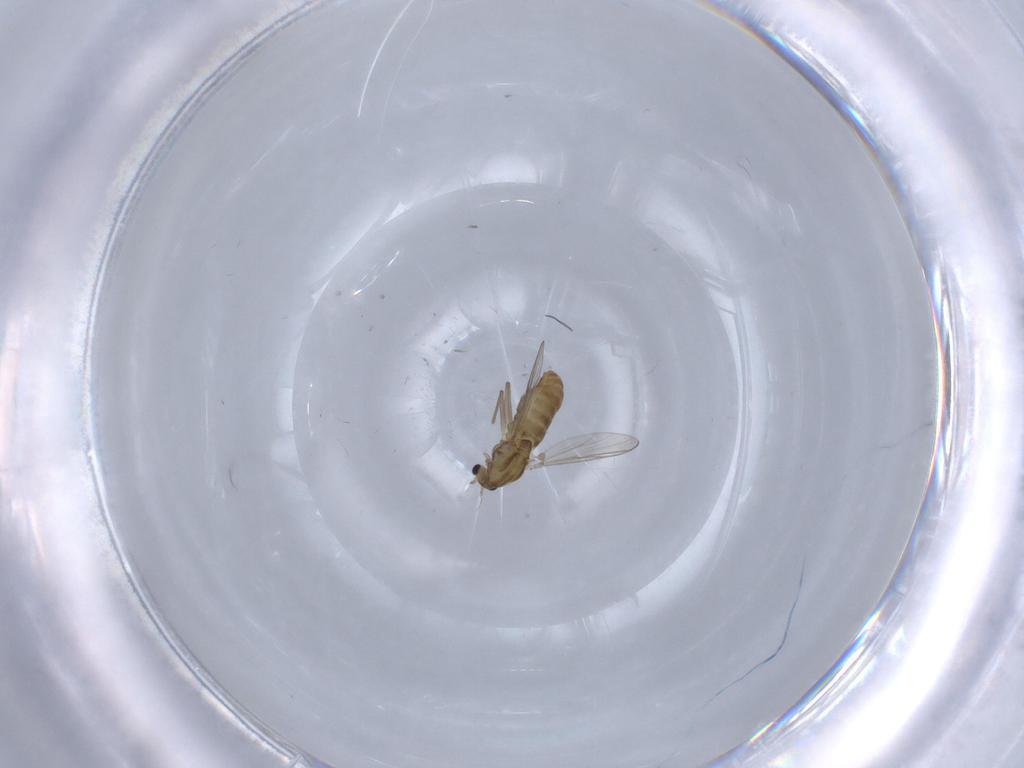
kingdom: Animalia
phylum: Arthropoda
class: Insecta
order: Diptera
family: Chironomidae
